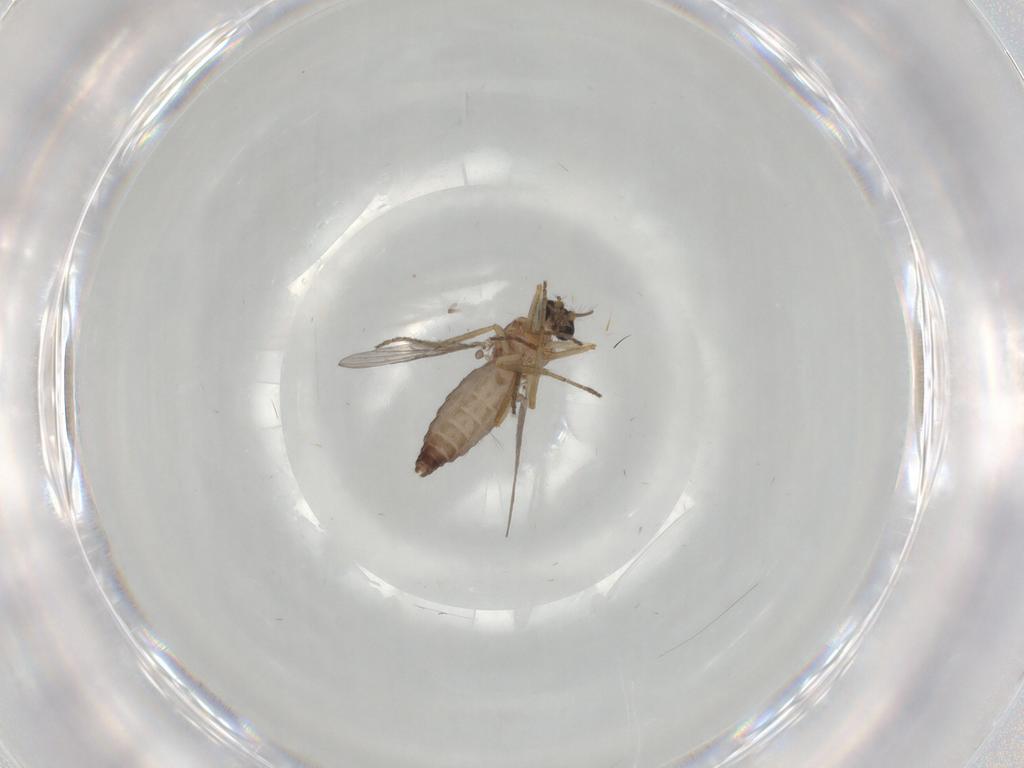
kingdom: Animalia
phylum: Arthropoda
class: Insecta
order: Diptera
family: Ceratopogonidae
